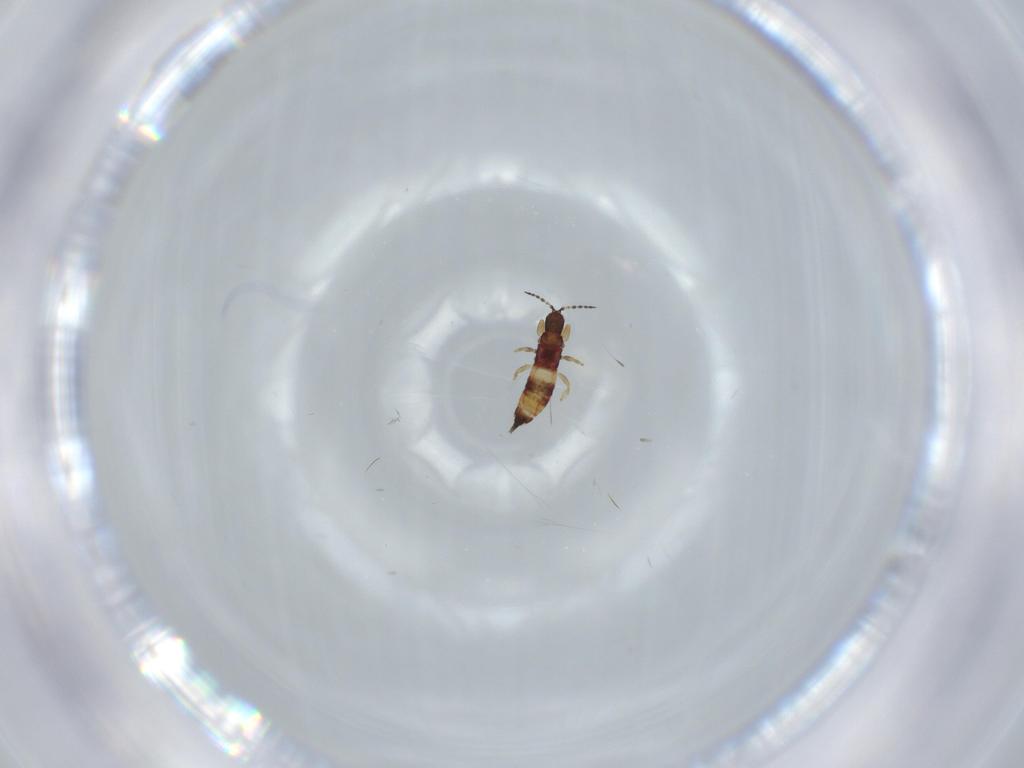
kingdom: Animalia
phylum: Arthropoda
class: Insecta
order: Thysanoptera
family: Phlaeothripidae
